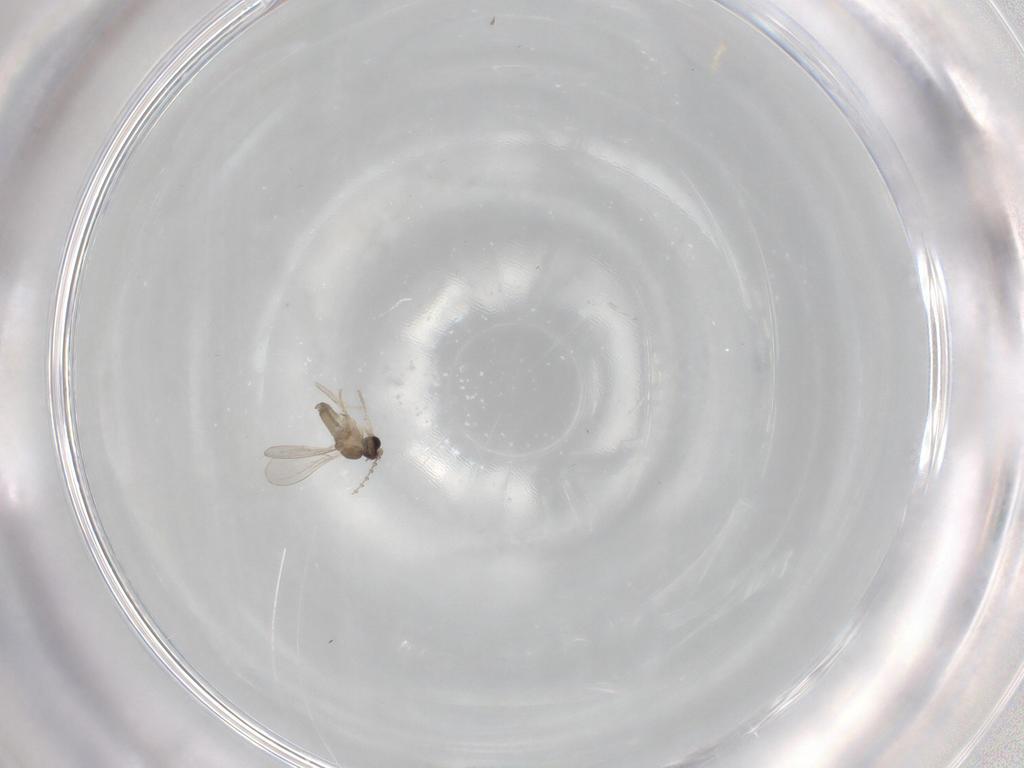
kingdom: Animalia
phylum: Arthropoda
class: Insecta
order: Diptera
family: Cecidomyiidae
